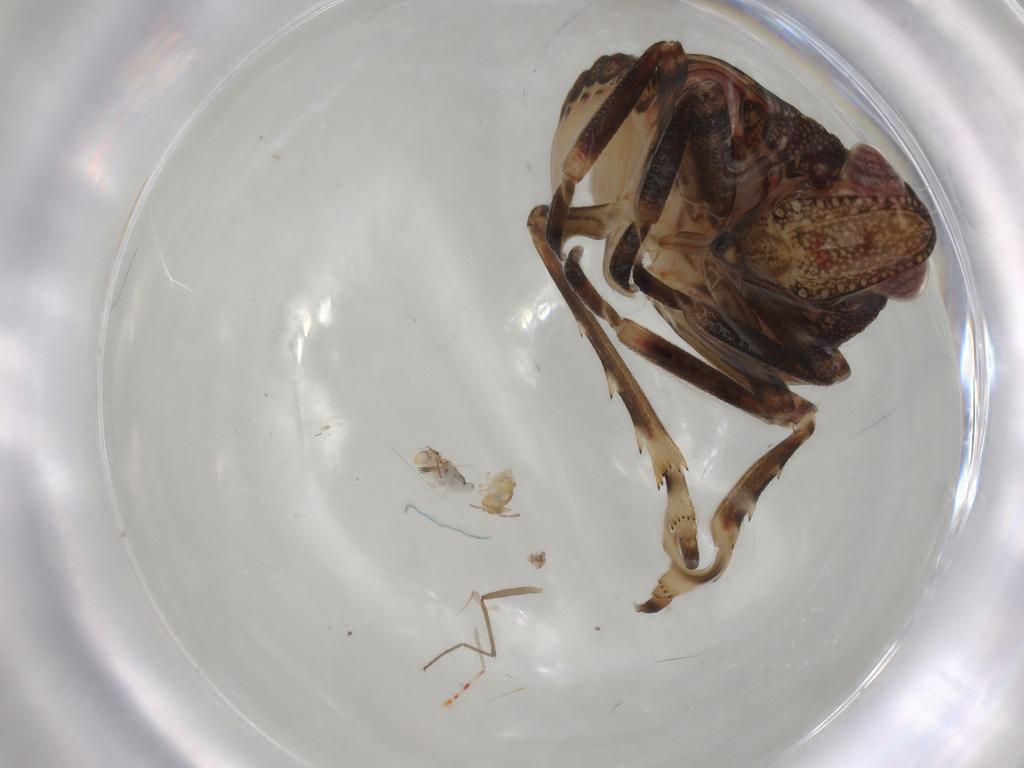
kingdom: Animalia
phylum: Arthropoda
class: Insecta
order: Hemiptera
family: Tropiduchidae
